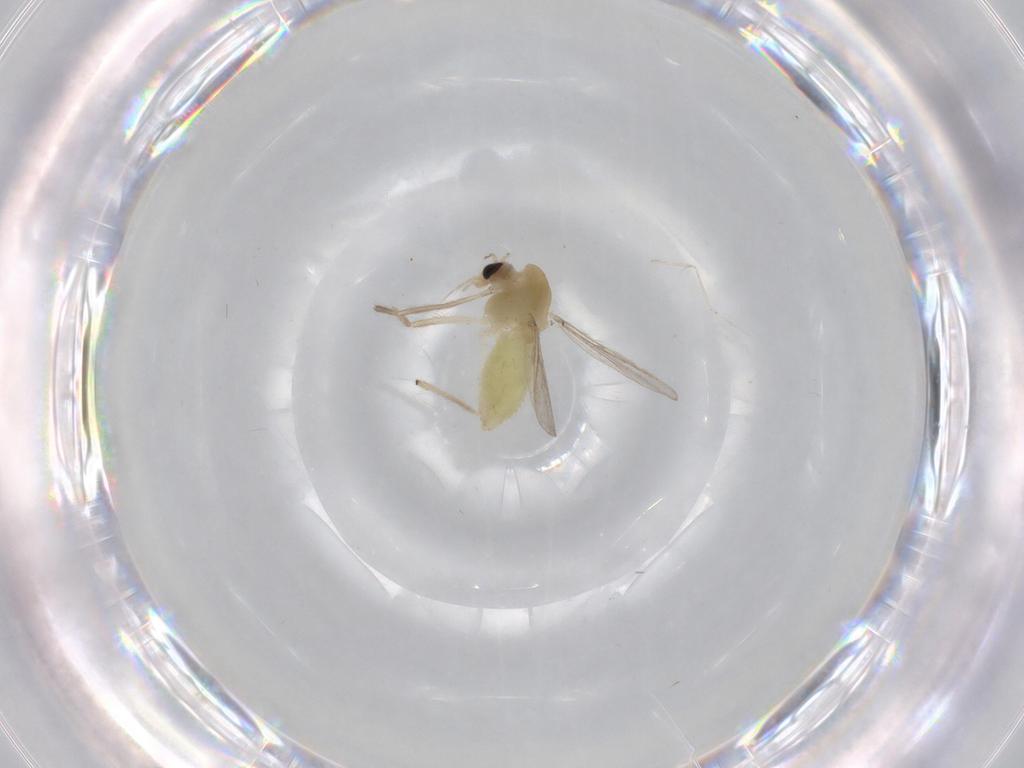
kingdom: Animalia
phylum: Arthropoda
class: Insecta
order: Diptera
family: Chironomidae
